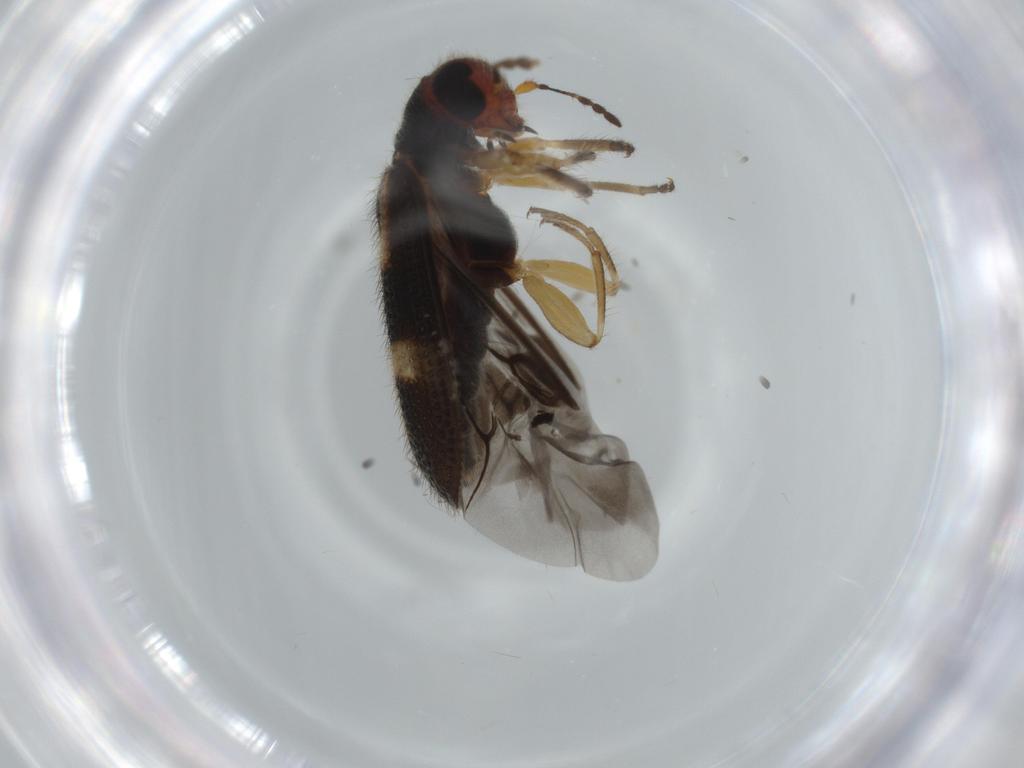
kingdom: Animalia
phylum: Arthropoda
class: Insecta
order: Coleoptera
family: Cleridae
